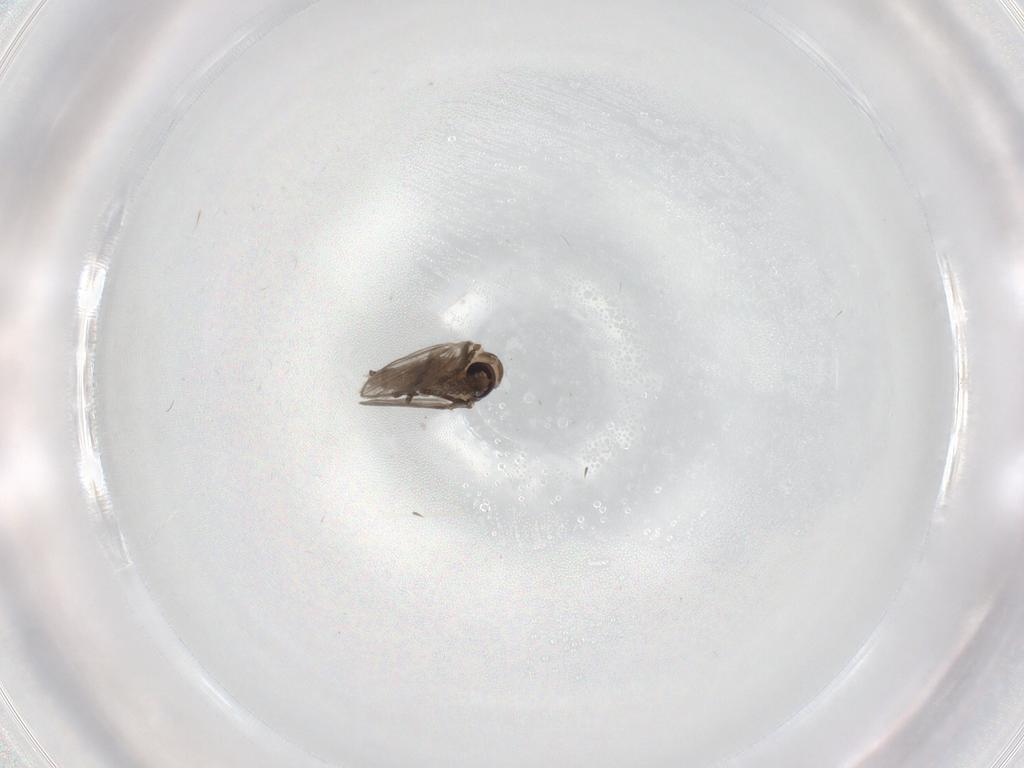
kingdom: Animalia
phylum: Arthropoda
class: Insecta
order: Diptera
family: Psychodidae
